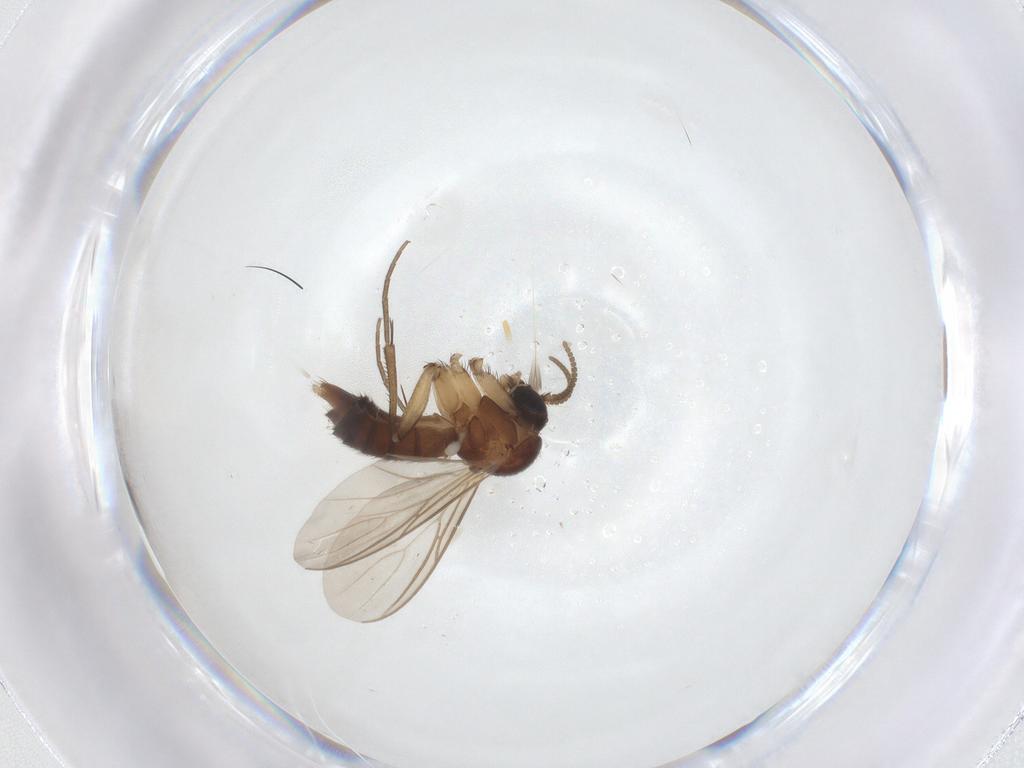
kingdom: Animalia
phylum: Arthropoda
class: Insecta
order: Diptera
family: Mycetophilidae
